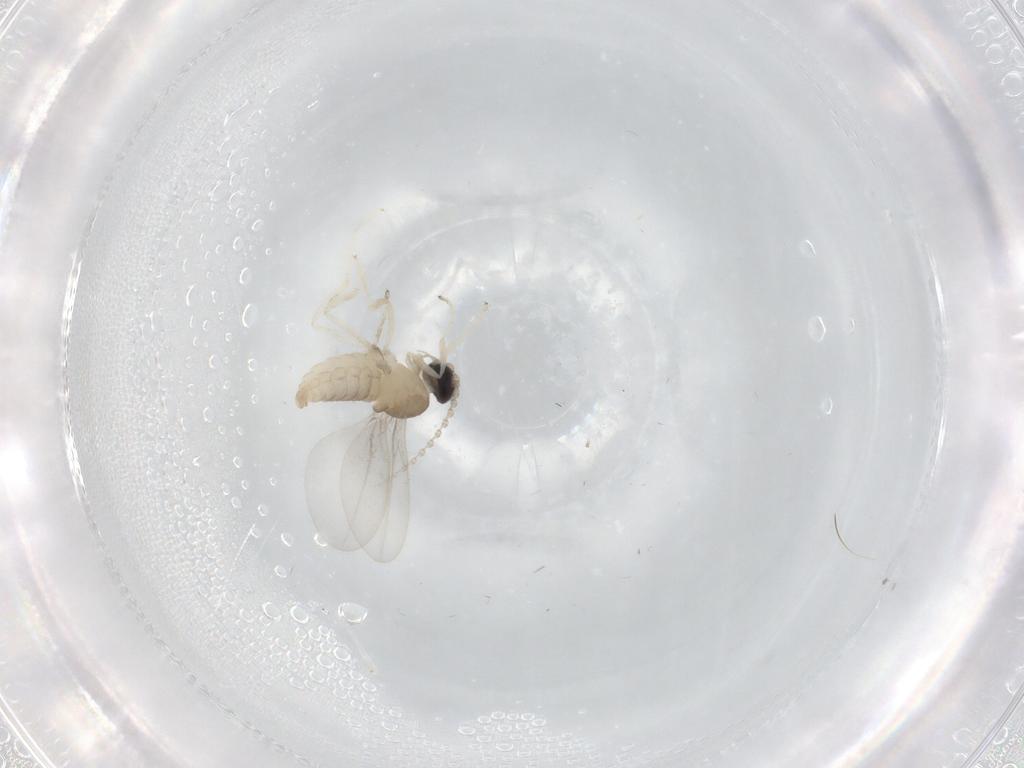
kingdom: Animalia
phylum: Arthropoda
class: Insecta
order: Diptera
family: Cecidomyiidae
